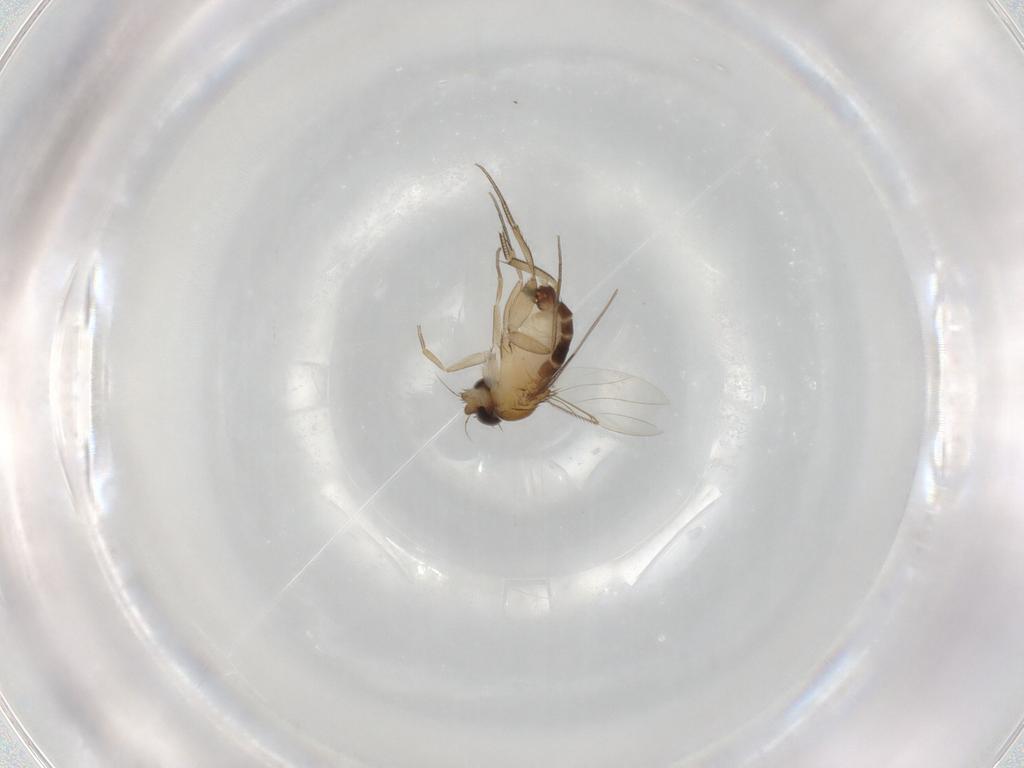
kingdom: Animalia
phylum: Arthropoda
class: Insecta
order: Diptera
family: Phoridae
